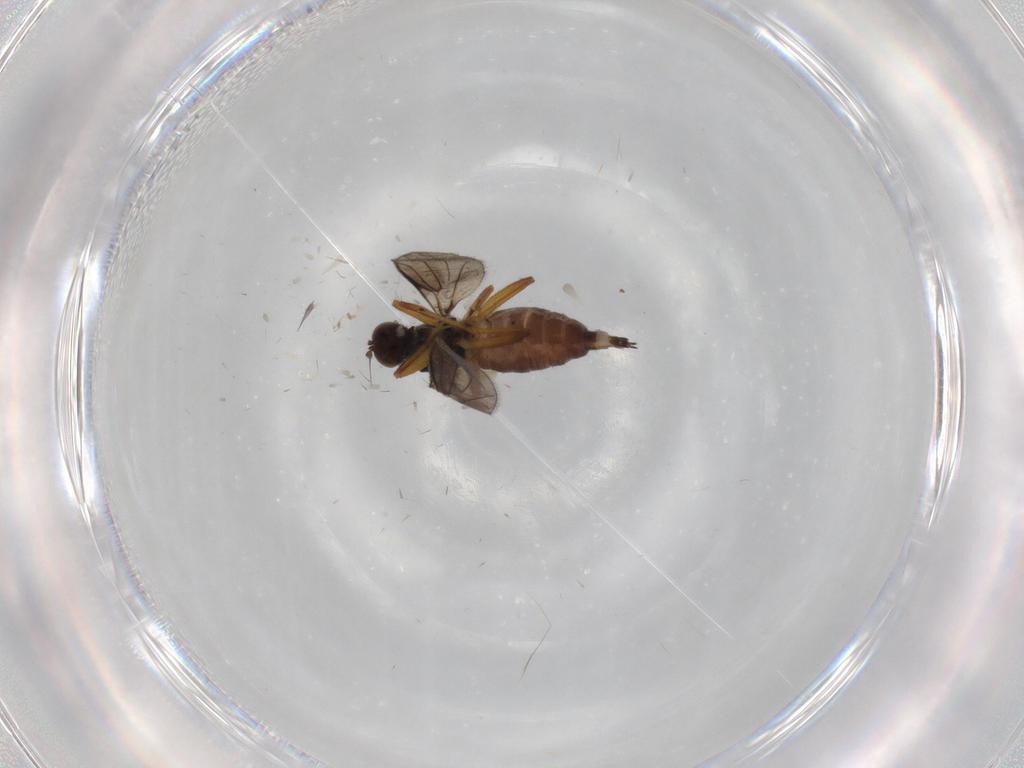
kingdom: Animalia
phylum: Arthropoda
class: Insecta
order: Diptera
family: Hybotidae
